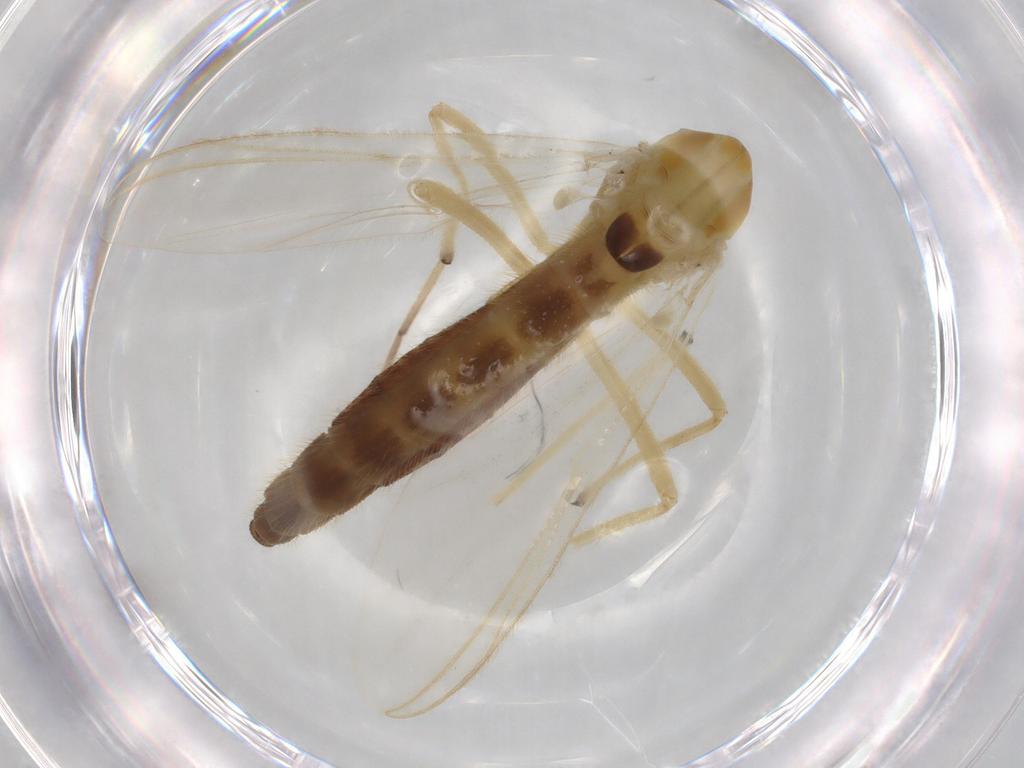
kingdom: Animalia
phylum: Arthropoda
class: Insecta
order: Diptera
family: Chironomidae
